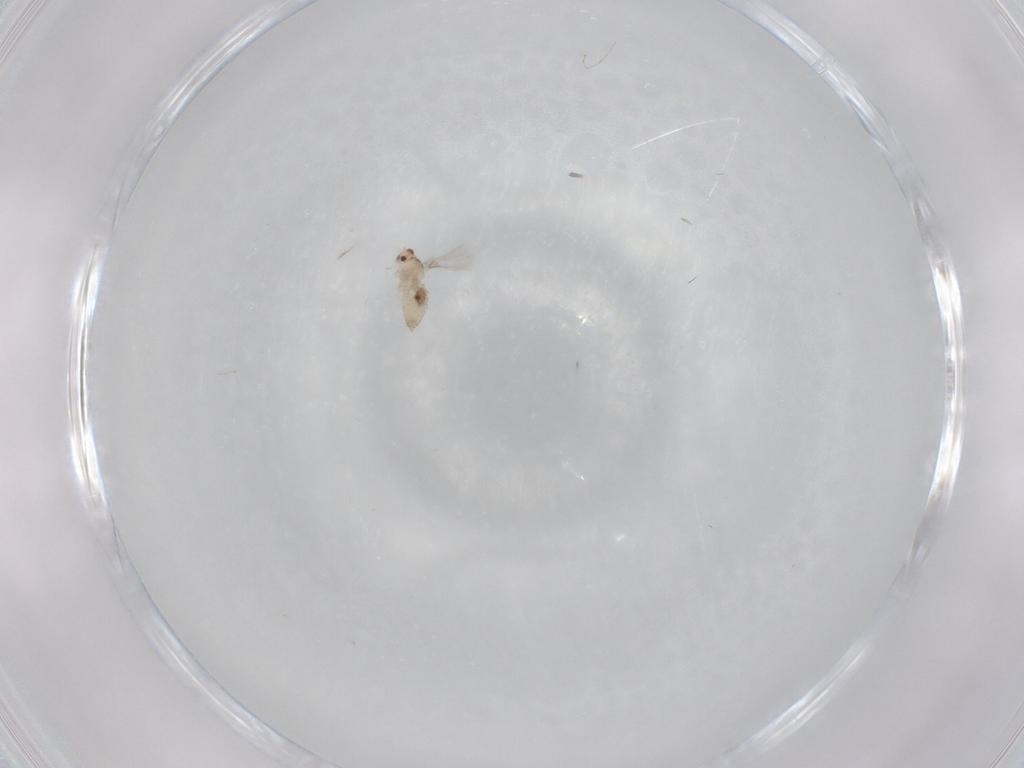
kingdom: Animalia
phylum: Arthropoda
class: Insecta
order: Diptera
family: Cecidomyiidae
